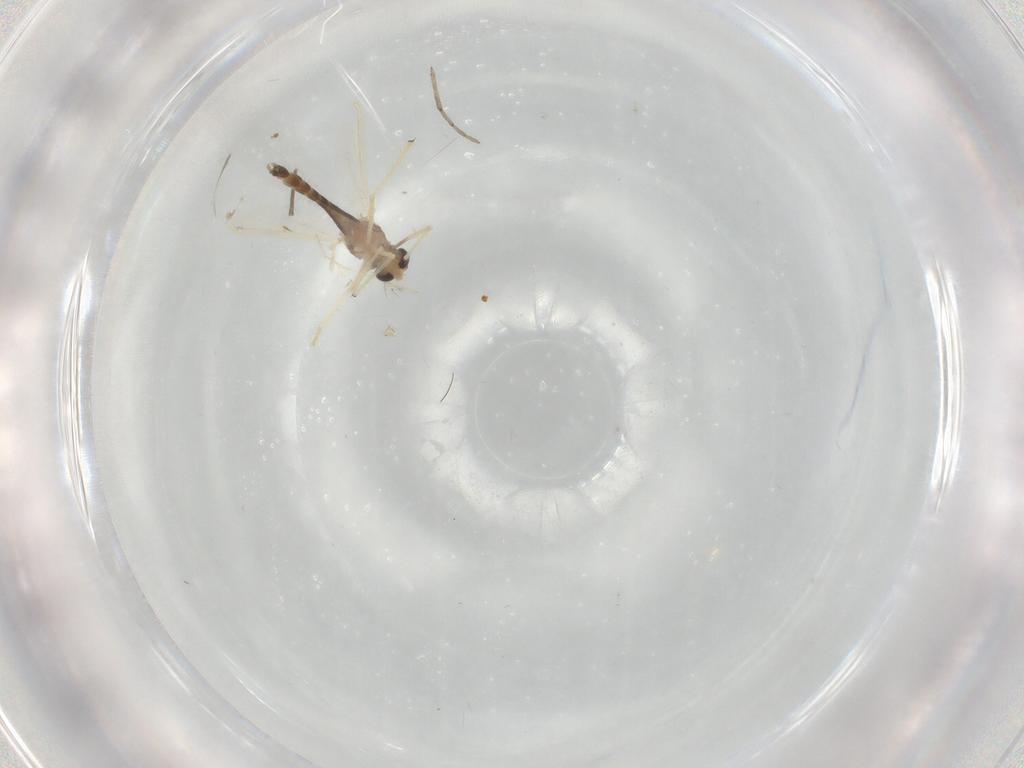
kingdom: Animalia
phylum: Arthropoda
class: Insecta
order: Diptera
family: Chironomidae
